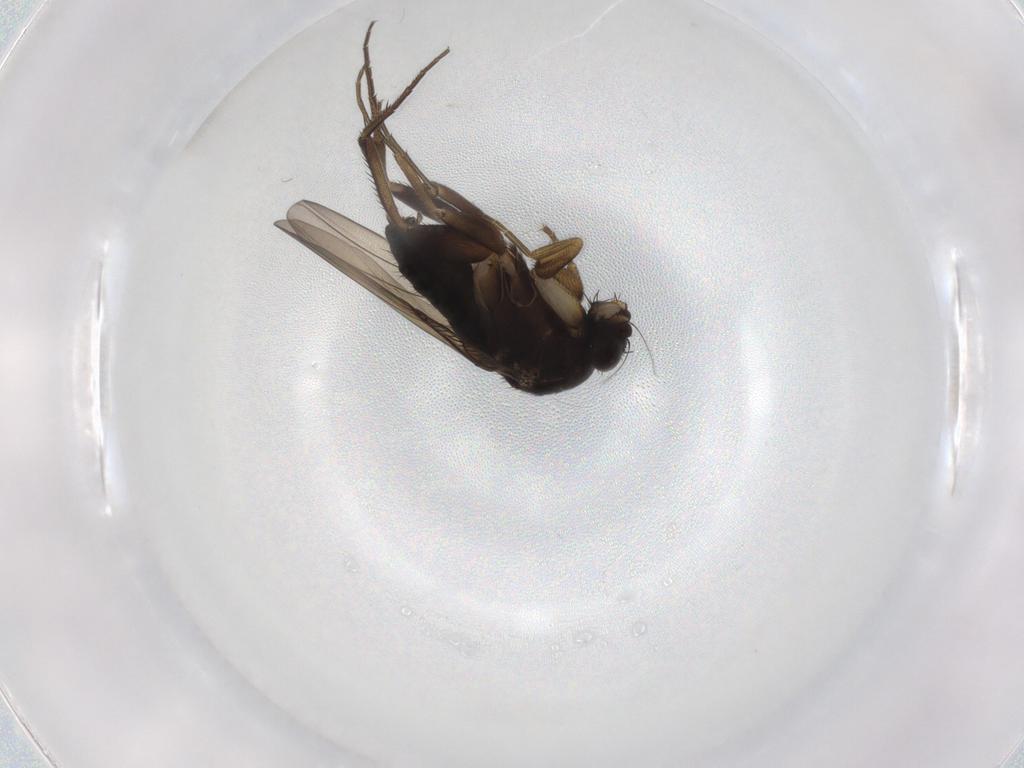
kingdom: Animalia
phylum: Arthropoda
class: Insecta
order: Diptera
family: Phoridae
